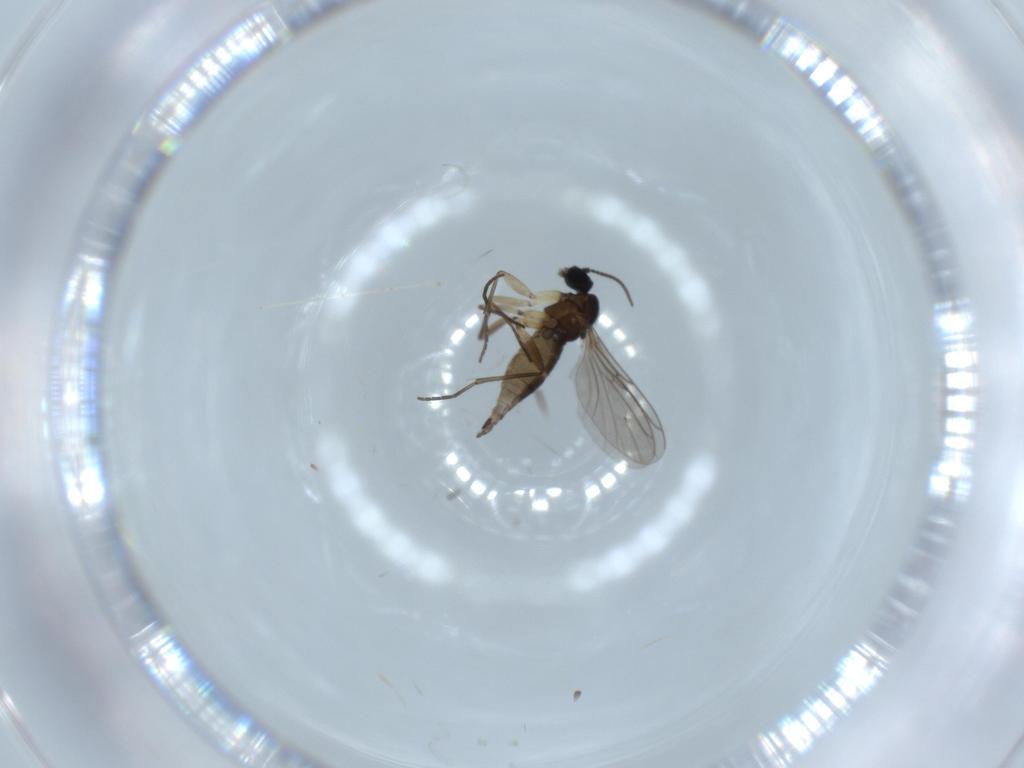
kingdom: Animalia
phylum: Arthropoda
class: Insecta
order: Diptera
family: Sciaridae
